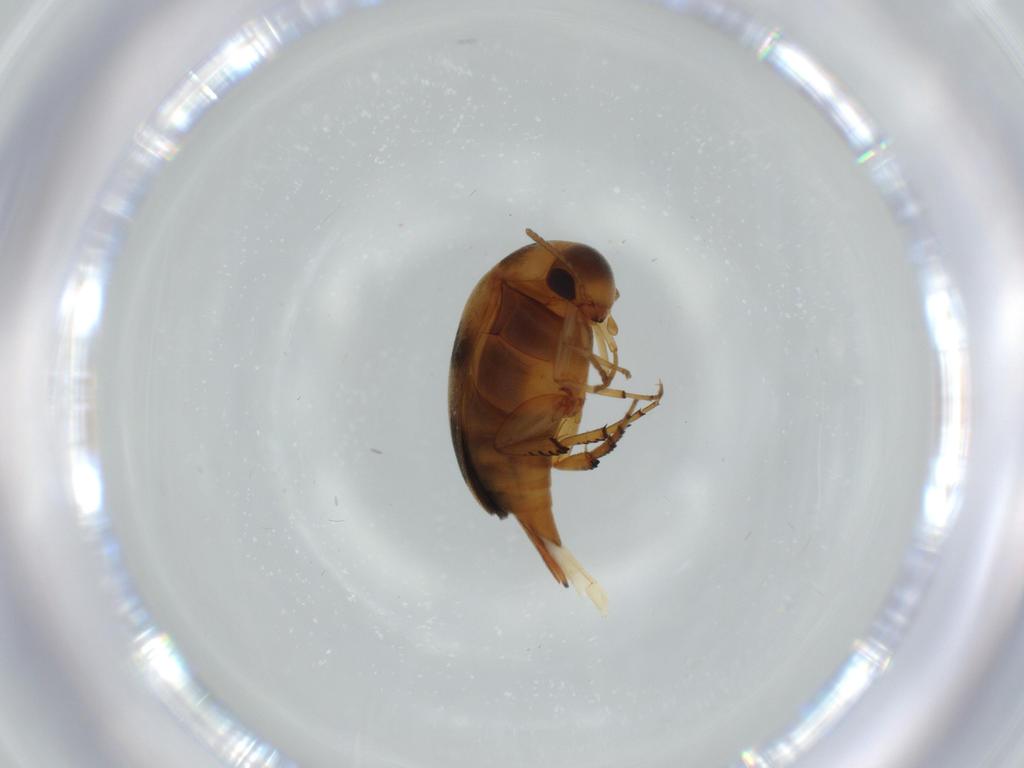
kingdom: Animalia
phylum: Arthropoda
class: Insecta
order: Coleoptera
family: Mordellidae
